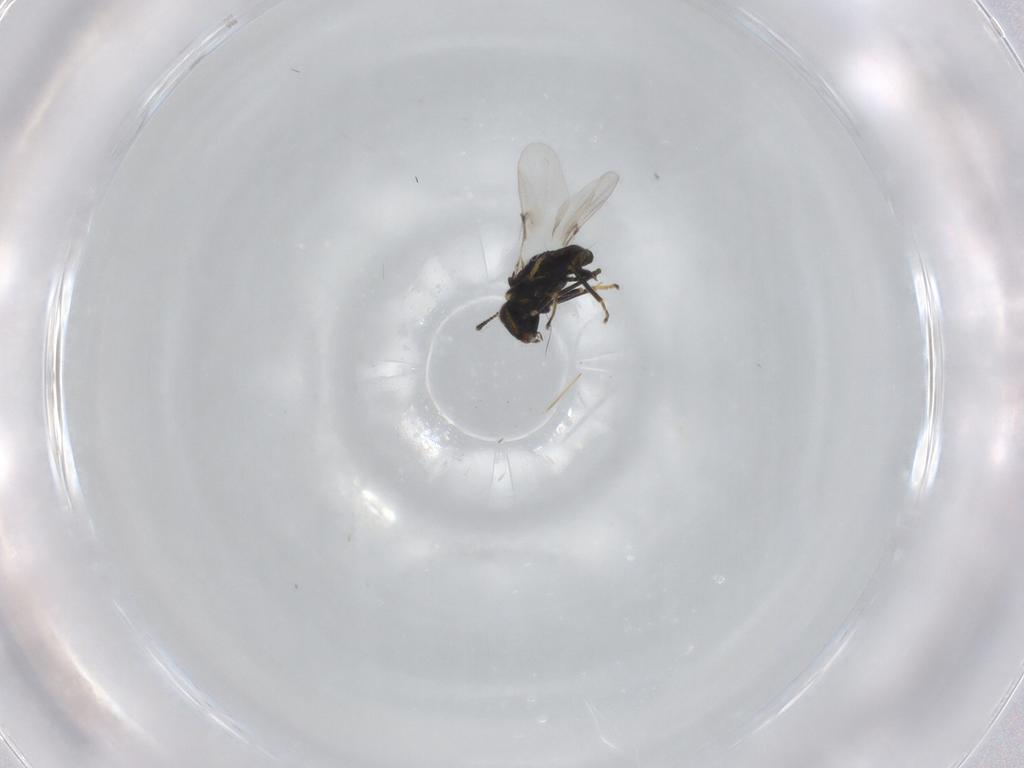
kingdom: Animalia
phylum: Arthropoda
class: Insecta
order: Hymenoptera
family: Encyrtidae
